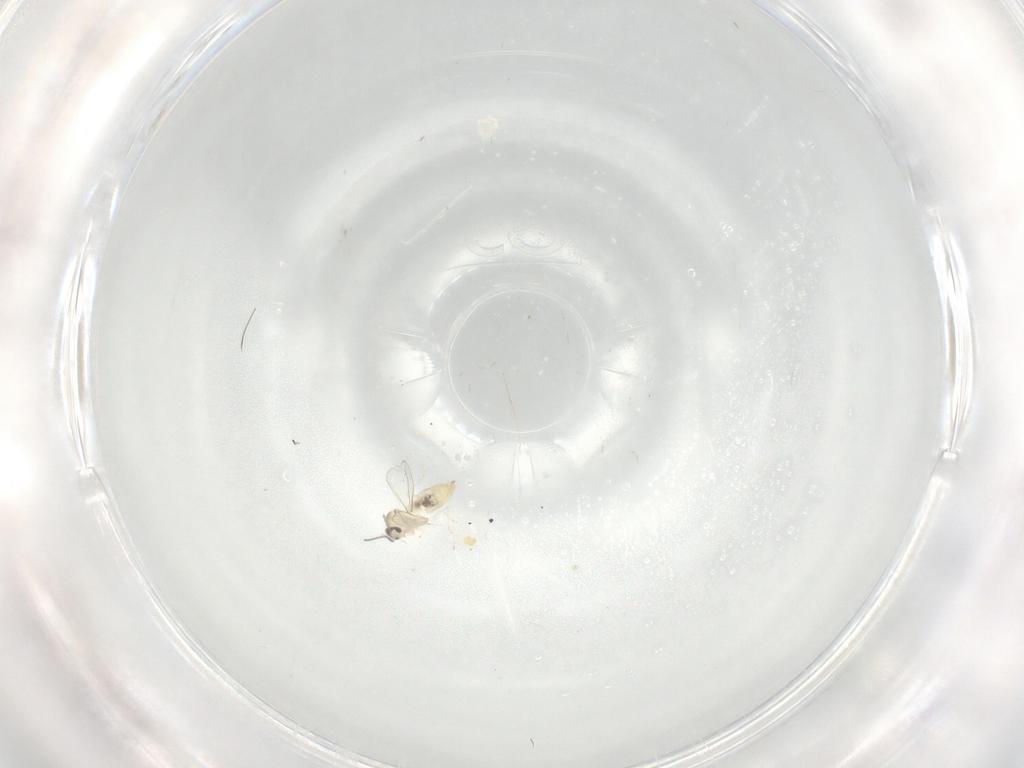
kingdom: Animalia
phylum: Arthropoda
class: Insecta
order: Diptera
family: Cecidomyiidae
